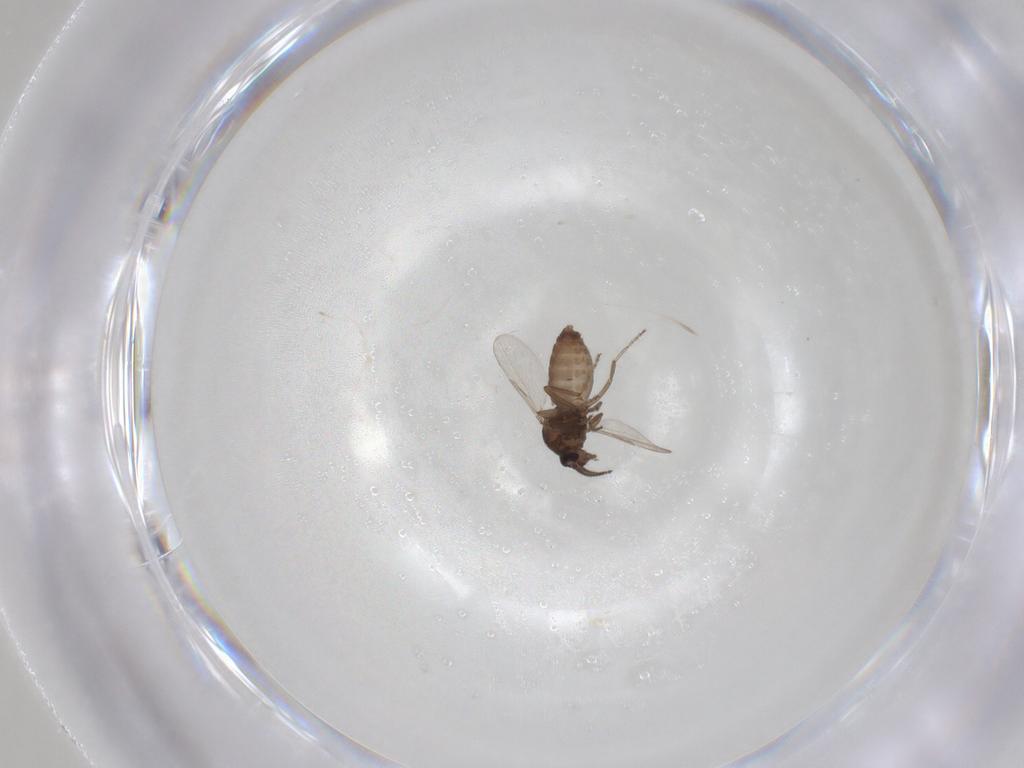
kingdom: Animalia
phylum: Arthropoda
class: Insecta
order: Diptera
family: Ceratopogonidae
